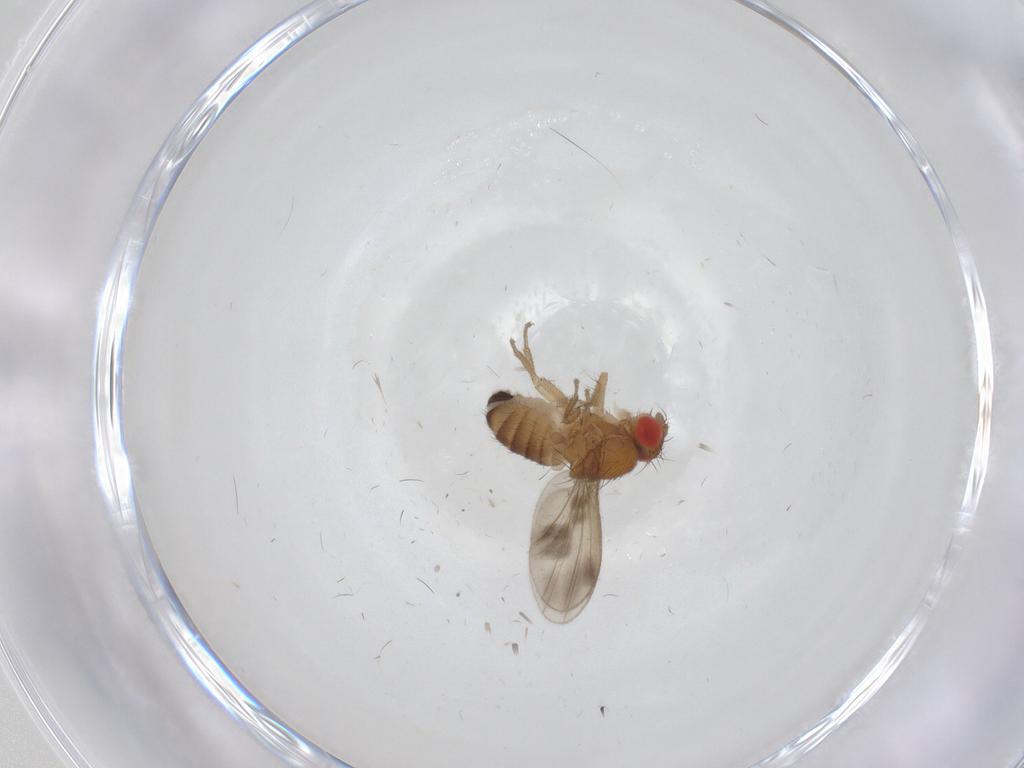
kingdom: Animalia
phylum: Arthropoda
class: Insecta
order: Diptera
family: Drosophilidae
